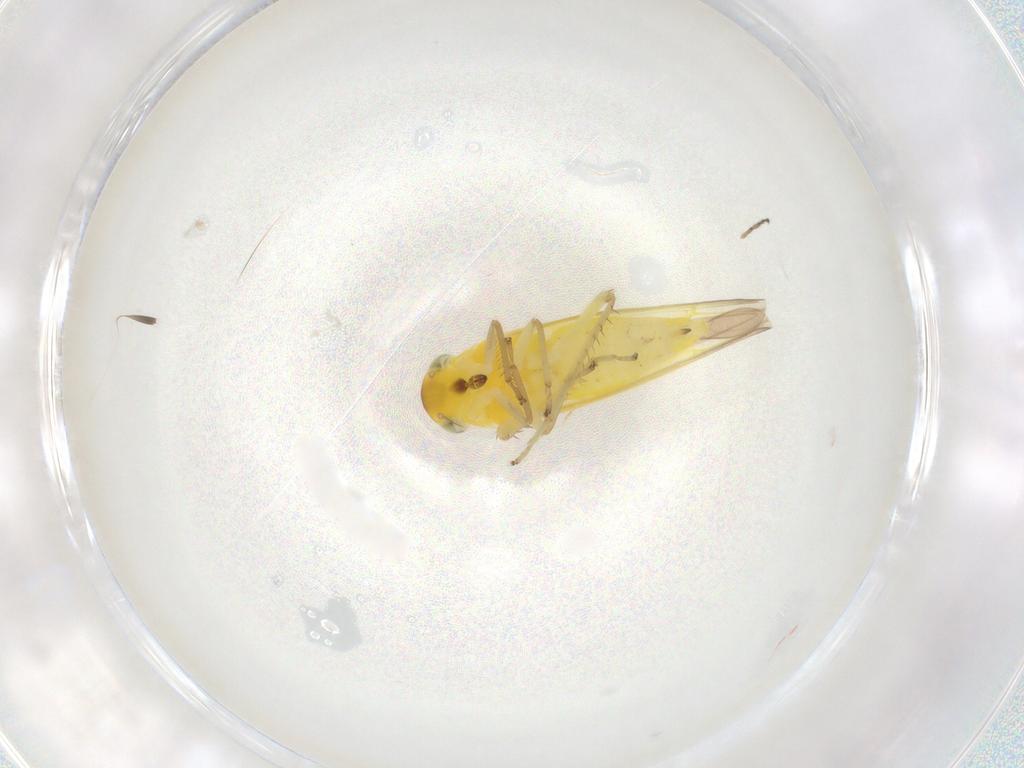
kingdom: Animalia
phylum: Arthropoda
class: Insecta
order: Hemiptera
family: Cicadellidae
